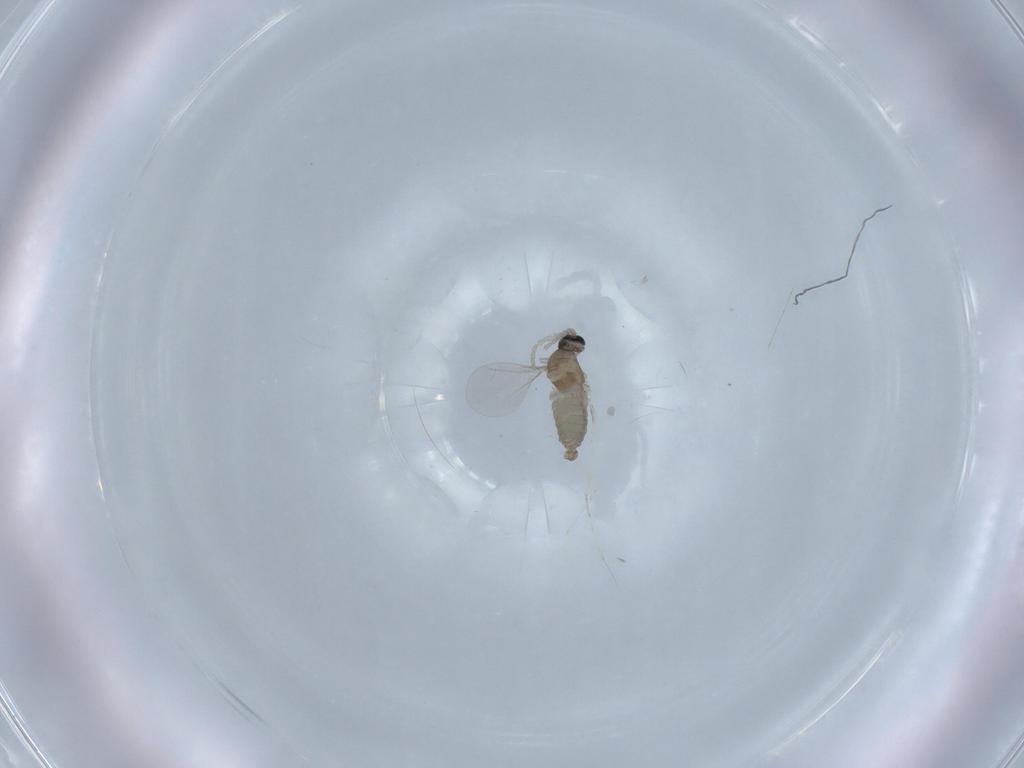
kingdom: Animalia
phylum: Arthropoda
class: Insecta
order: Diptera
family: Dolichopodidae
